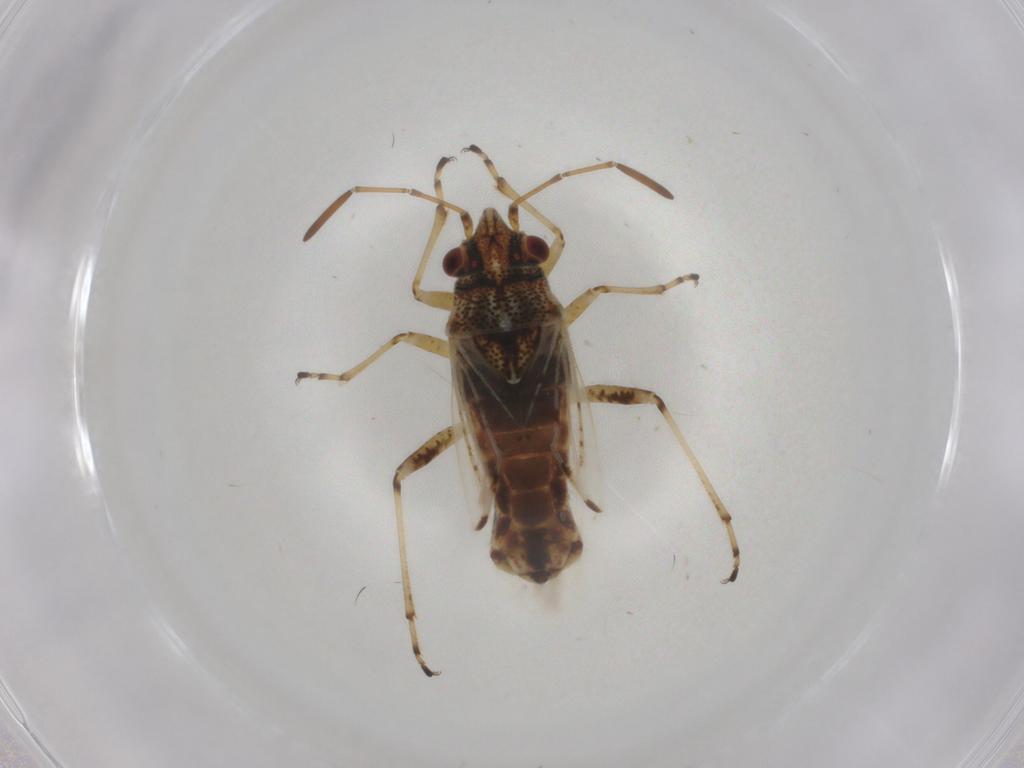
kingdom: Animalia
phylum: Arthropoda
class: Insecta
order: Hemiptera
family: Lygaeidae
